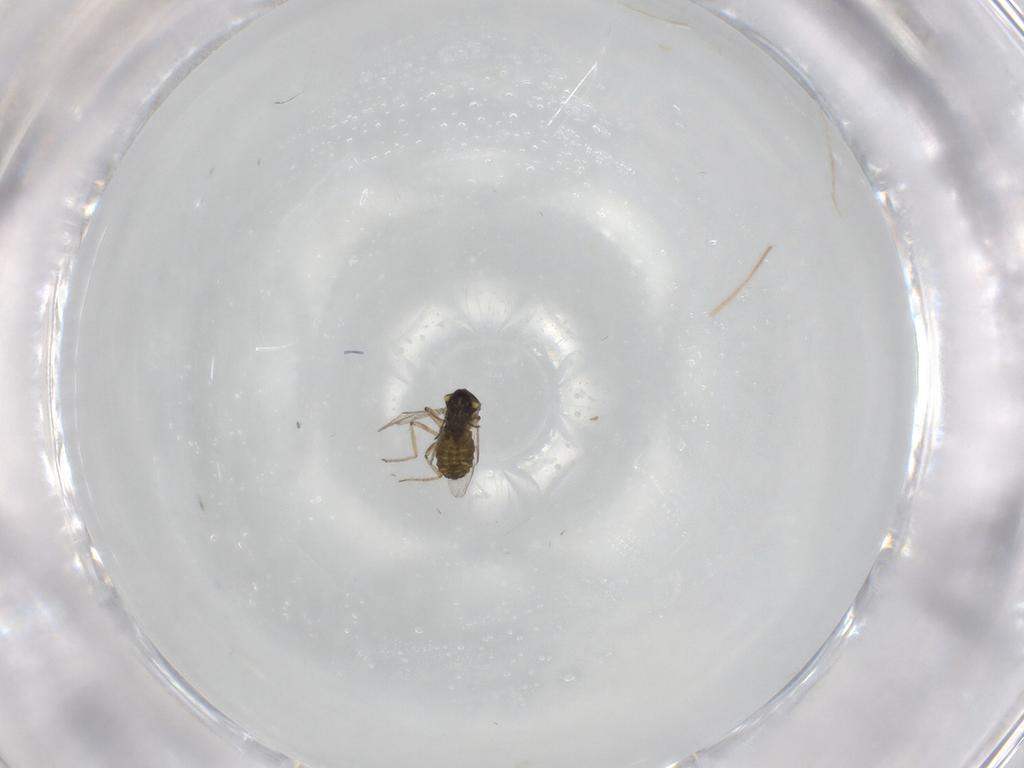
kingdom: Animalia
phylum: Arthropoda
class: Insecta
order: Diptera
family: Ceratopogonidae
